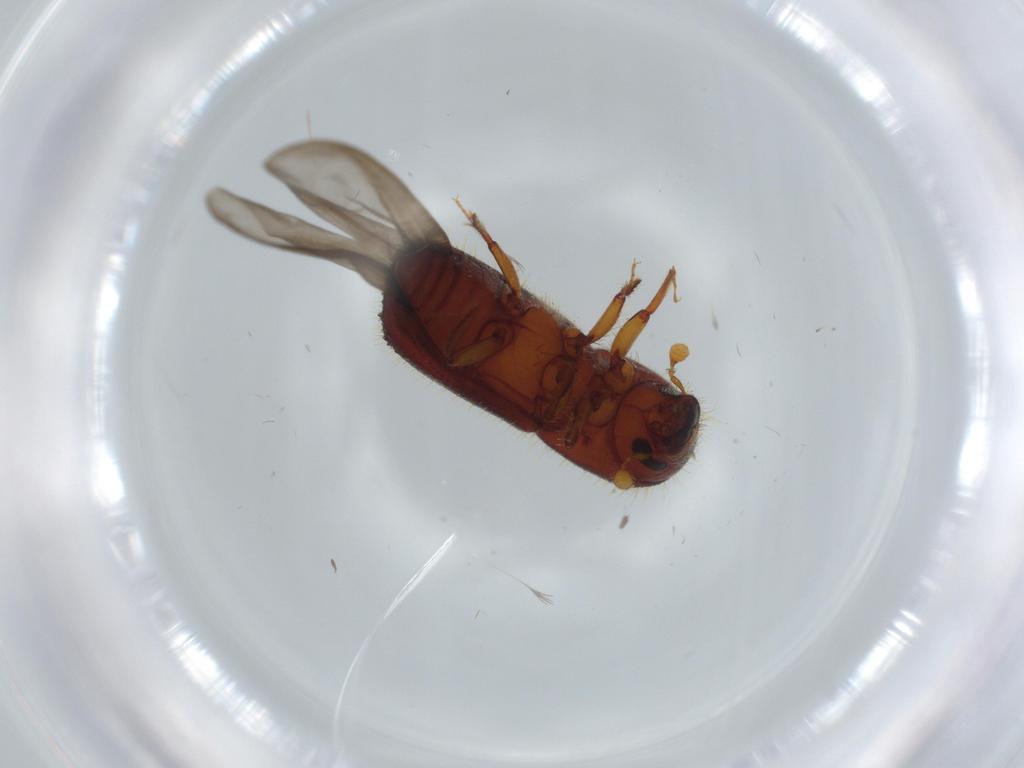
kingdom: Animalia
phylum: Arthropoda
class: Insecta
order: Coleoptera
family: Curculionidae
